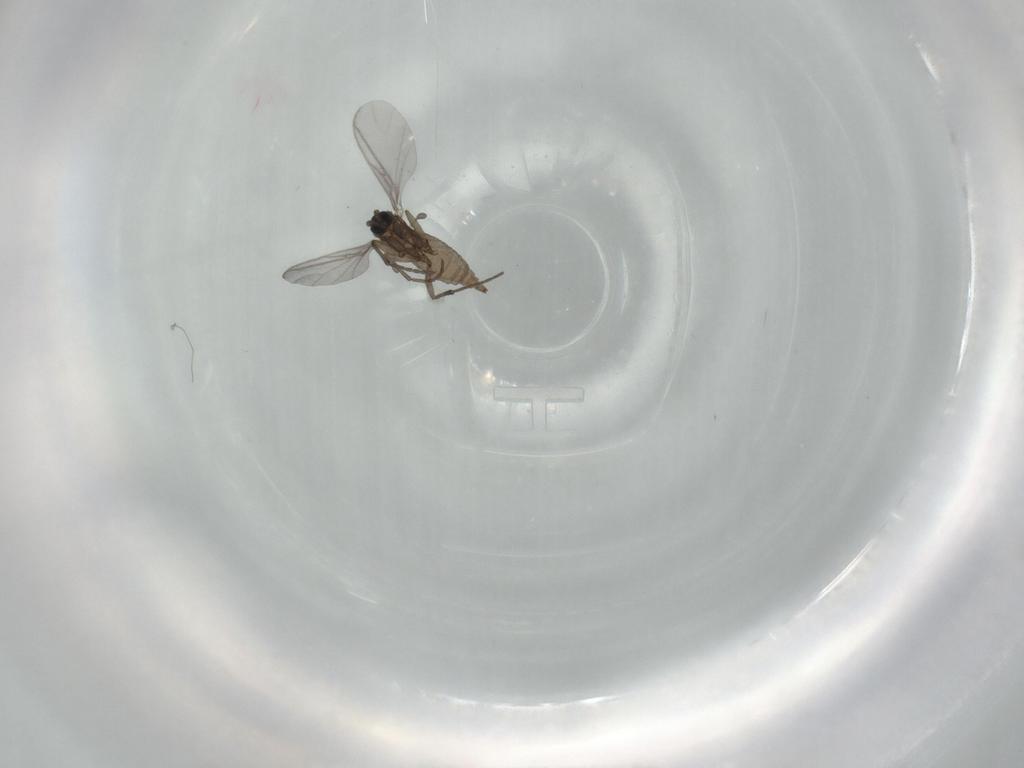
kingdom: Animalia
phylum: Arthropoda
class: Insecta
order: Diptera
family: Sciaridae
